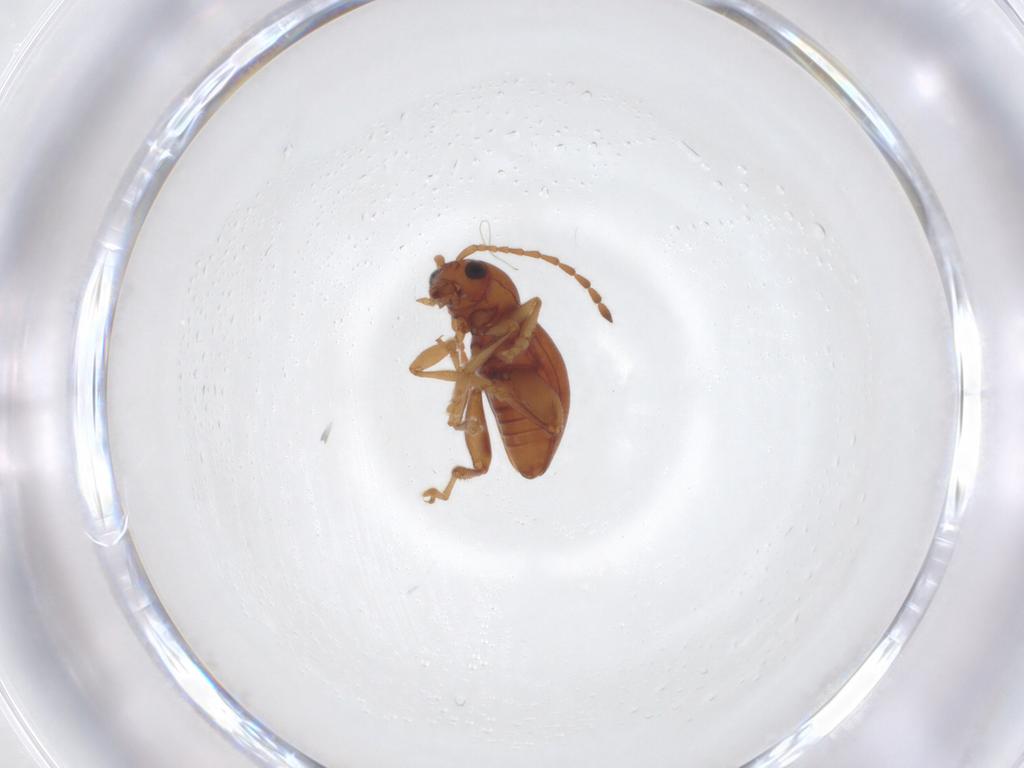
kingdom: Animalia
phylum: Arthropoda
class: Insecta
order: Coleoptera
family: Chrysomelidae
